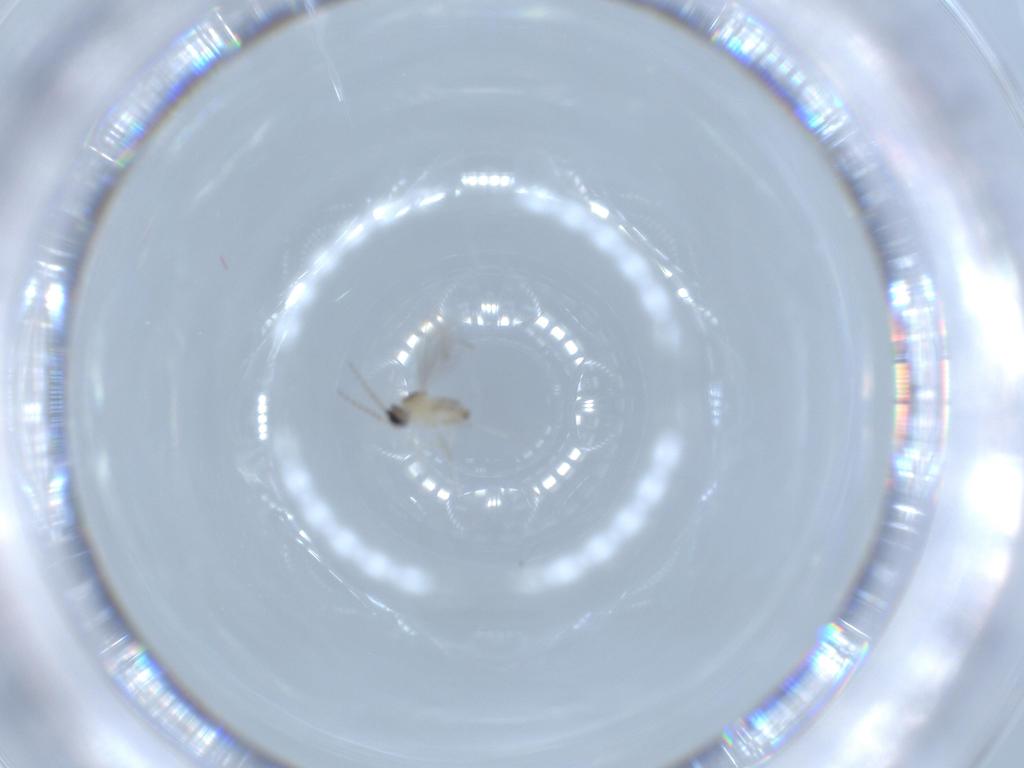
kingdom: Animalia
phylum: Arthropoda
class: Insecta
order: Diptera
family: Cecidomyiidae
